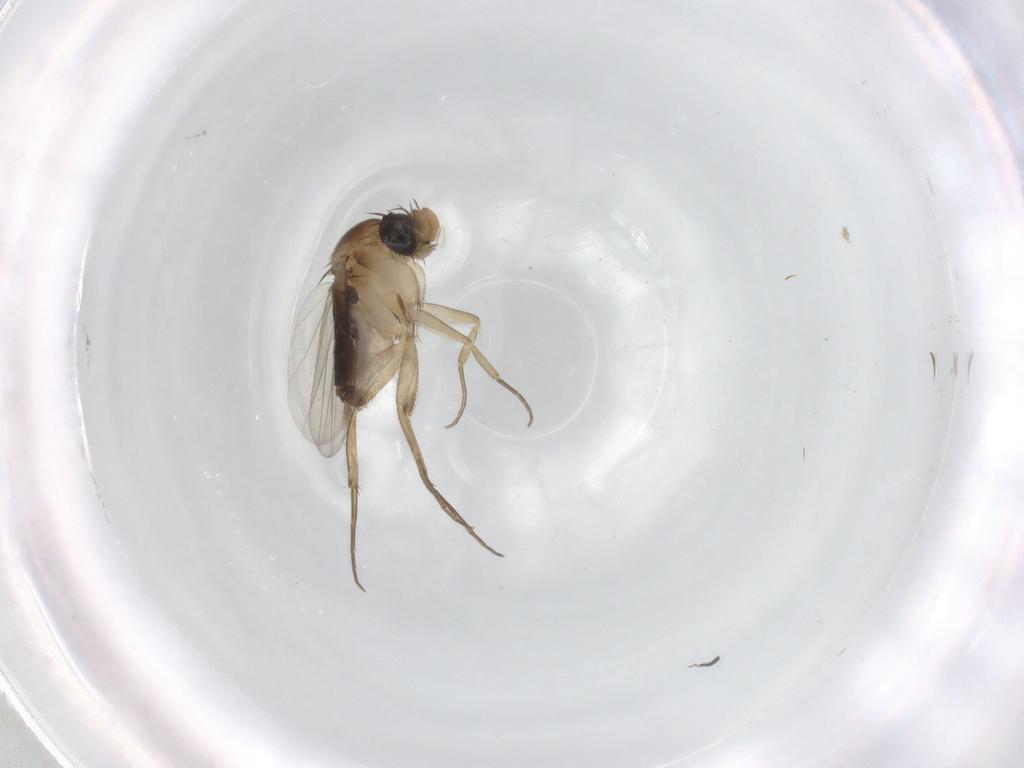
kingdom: Animalia
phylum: Arthropoda
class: Insecta
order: Diptera
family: Phoridae
